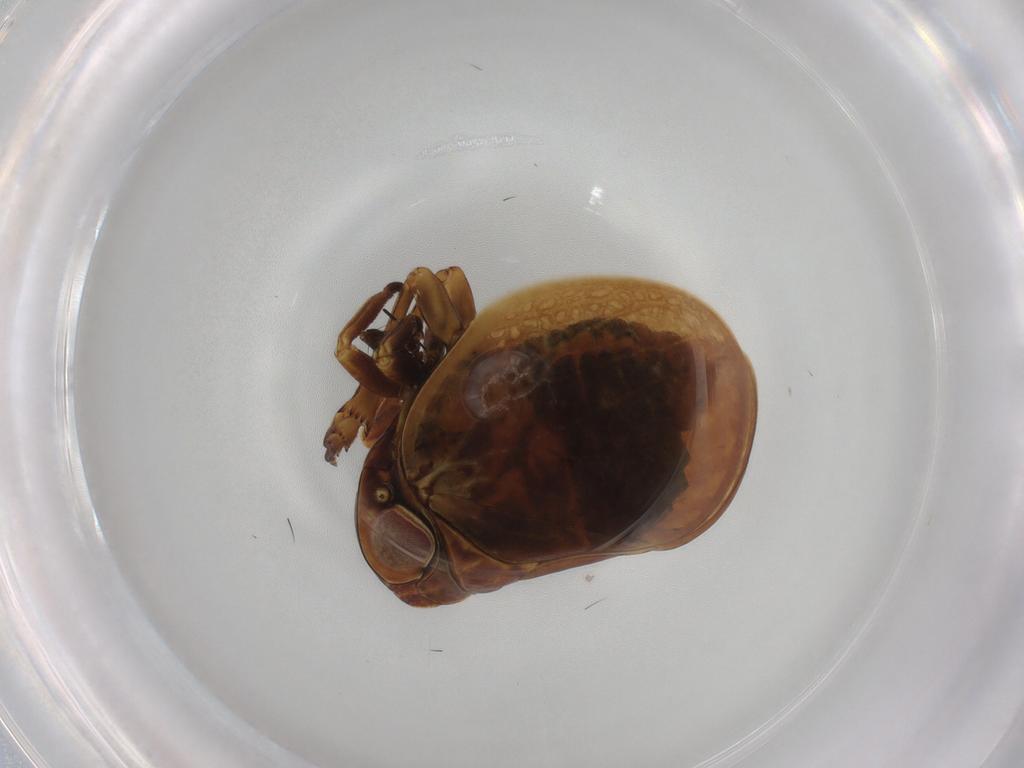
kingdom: Animalia
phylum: Arthropoda
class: Insecta
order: Hemiptera
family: Nogodinidae
